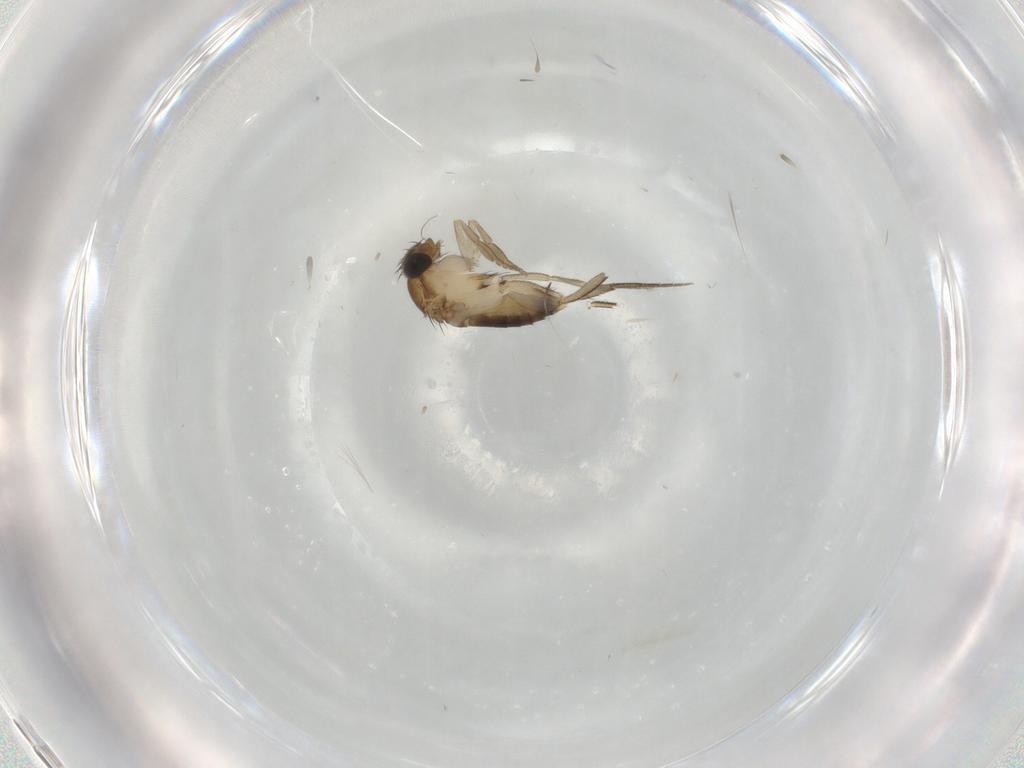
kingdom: Animalia
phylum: Arthropoda
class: Insecta
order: Diptera
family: Phoridae
